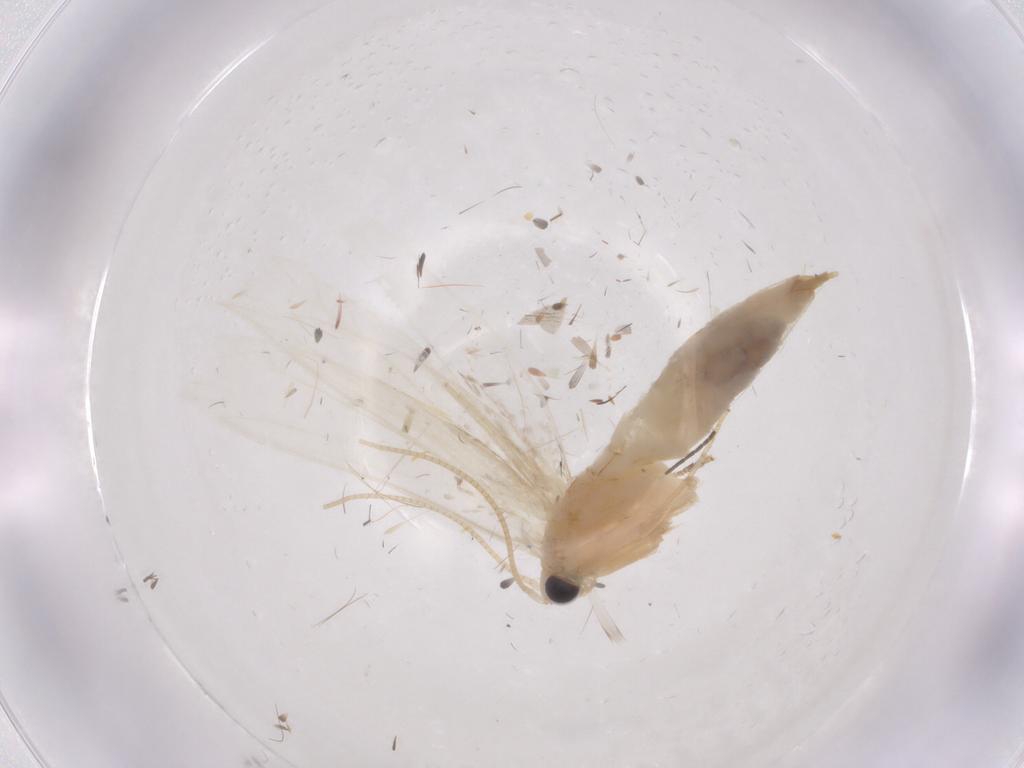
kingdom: Animalia
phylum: Arthropoda
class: Insecta
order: Lepidoptera
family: Tineidae
